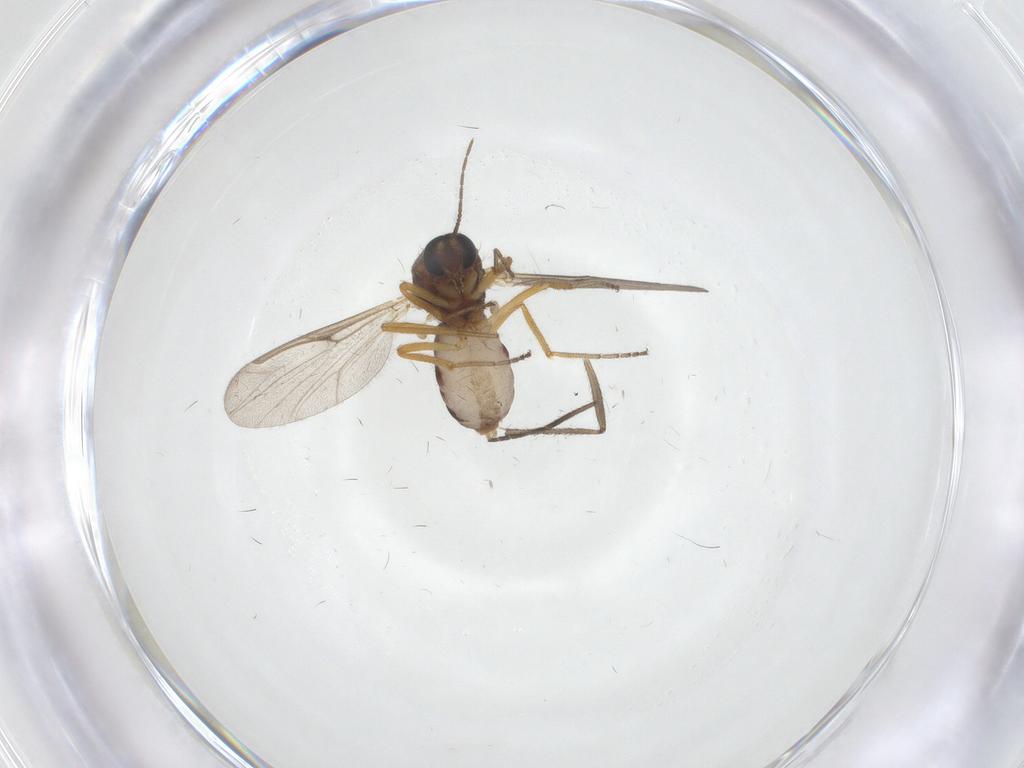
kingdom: Animalia
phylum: Arthropoda
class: Insecta
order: Diptera
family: Ceratopogonidae
